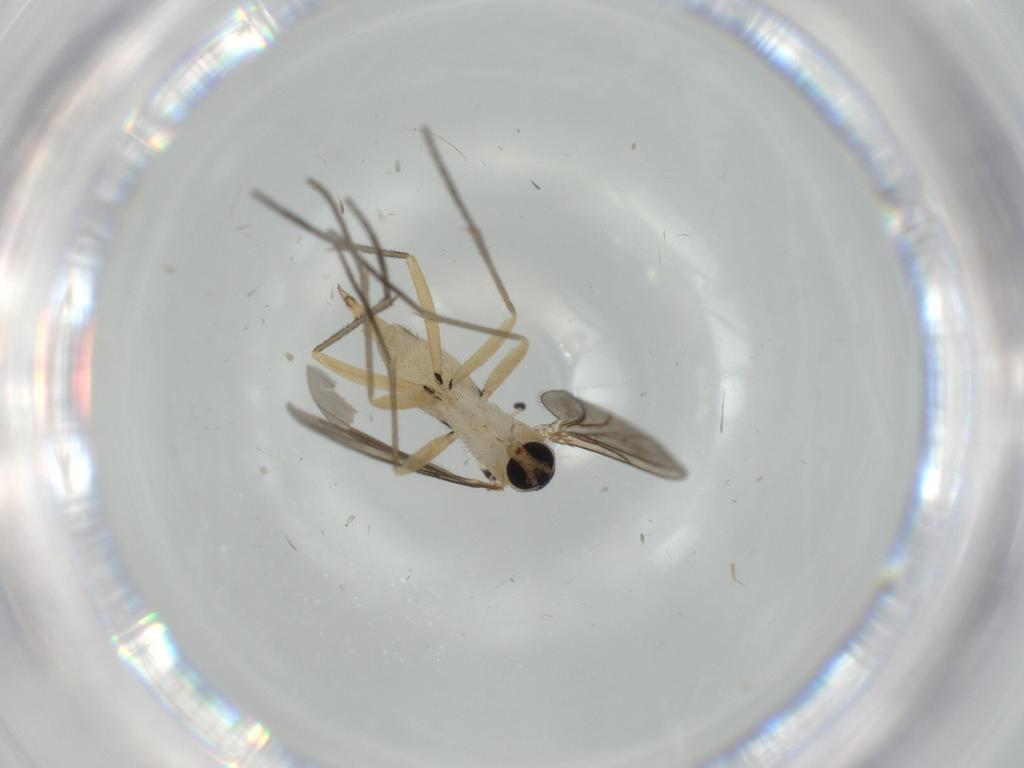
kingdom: Animalia
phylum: Arthropoda
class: Insecta
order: Diptera
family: Sciaridae
